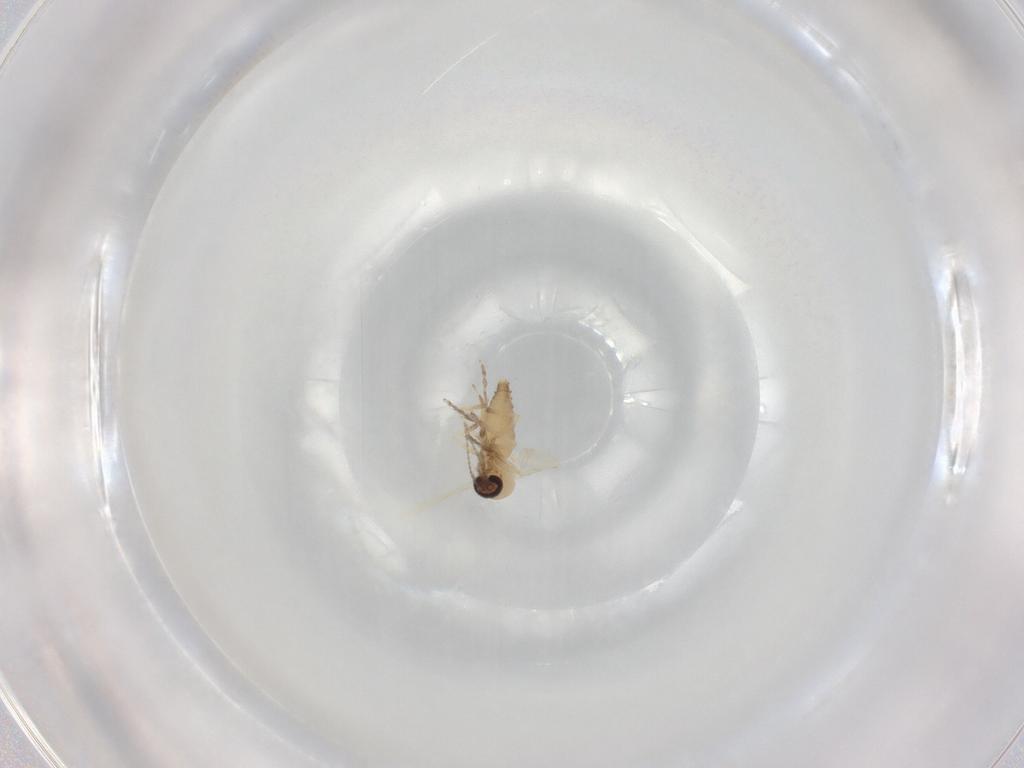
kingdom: Animalia
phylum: Arthropoda
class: Insecta
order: Diptera
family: Ceratopogonidae
